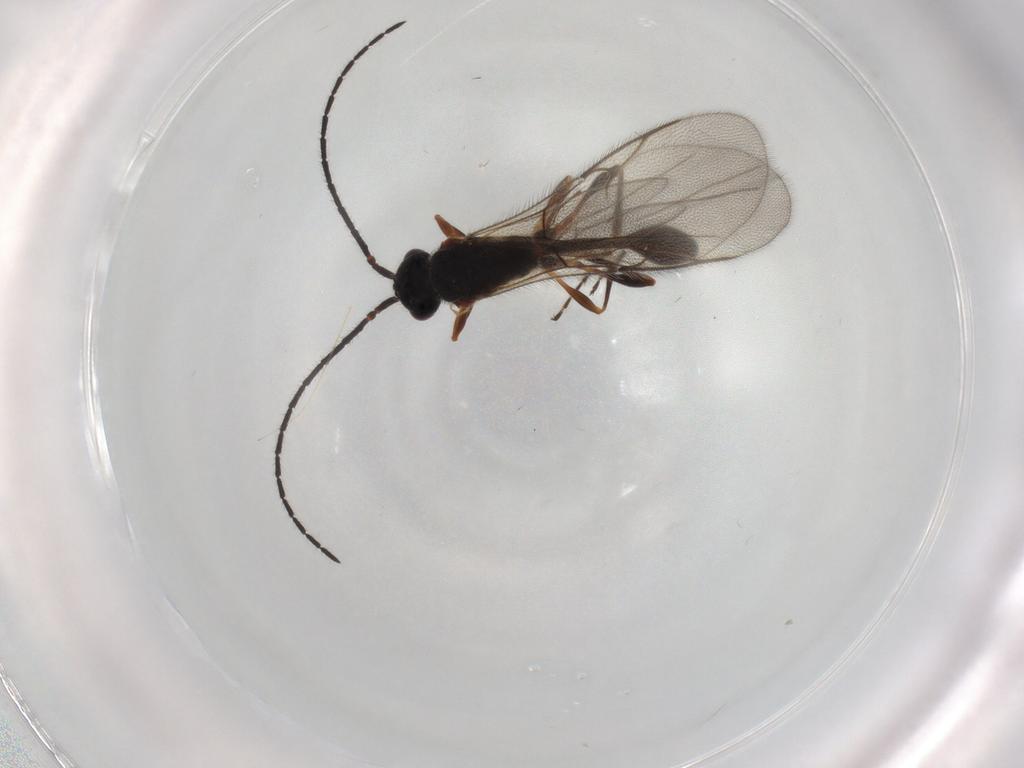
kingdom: Animalia
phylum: Arthropoda
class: Insecta
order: Hymenoptera
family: Diapriidae
